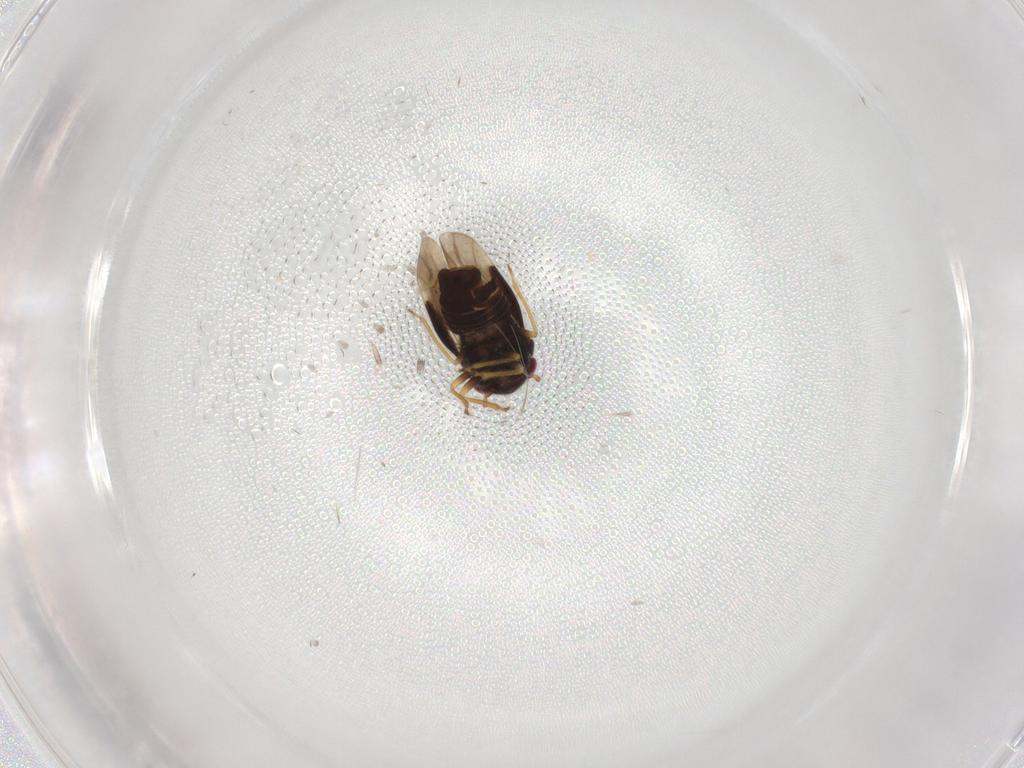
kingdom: Animalia
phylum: Arthropoda
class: Insecta
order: Hemiptera
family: Schizopteridae
